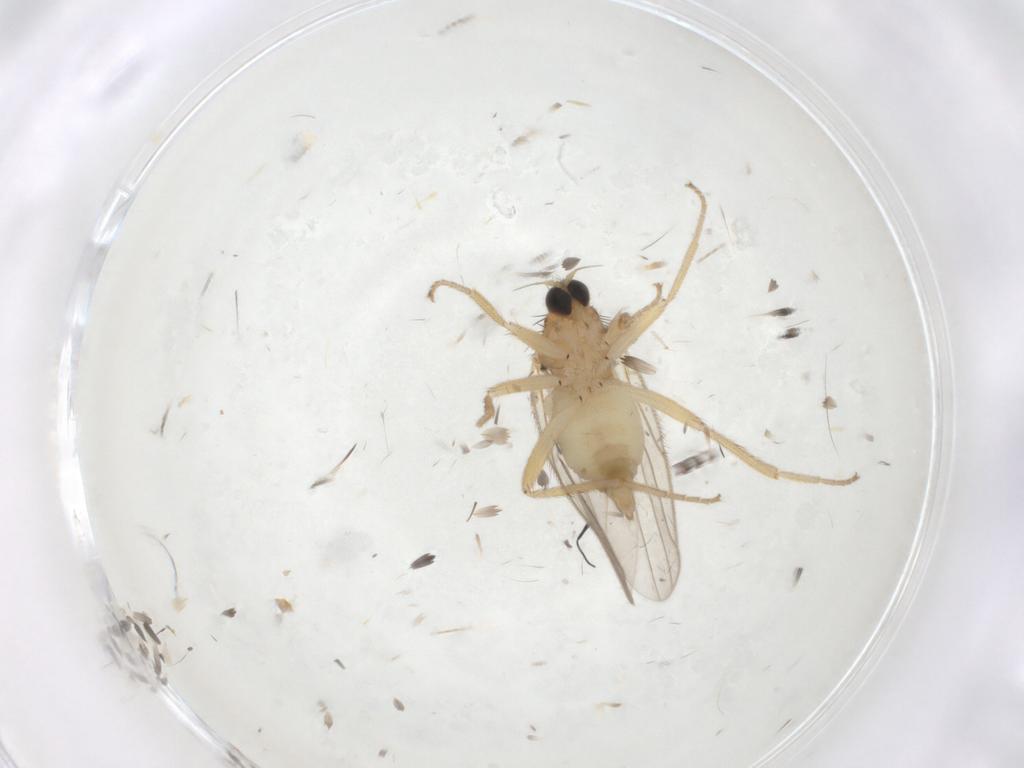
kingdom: Animalia
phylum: Arthropoda
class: Insecta
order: Diptera
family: Hybotidae
